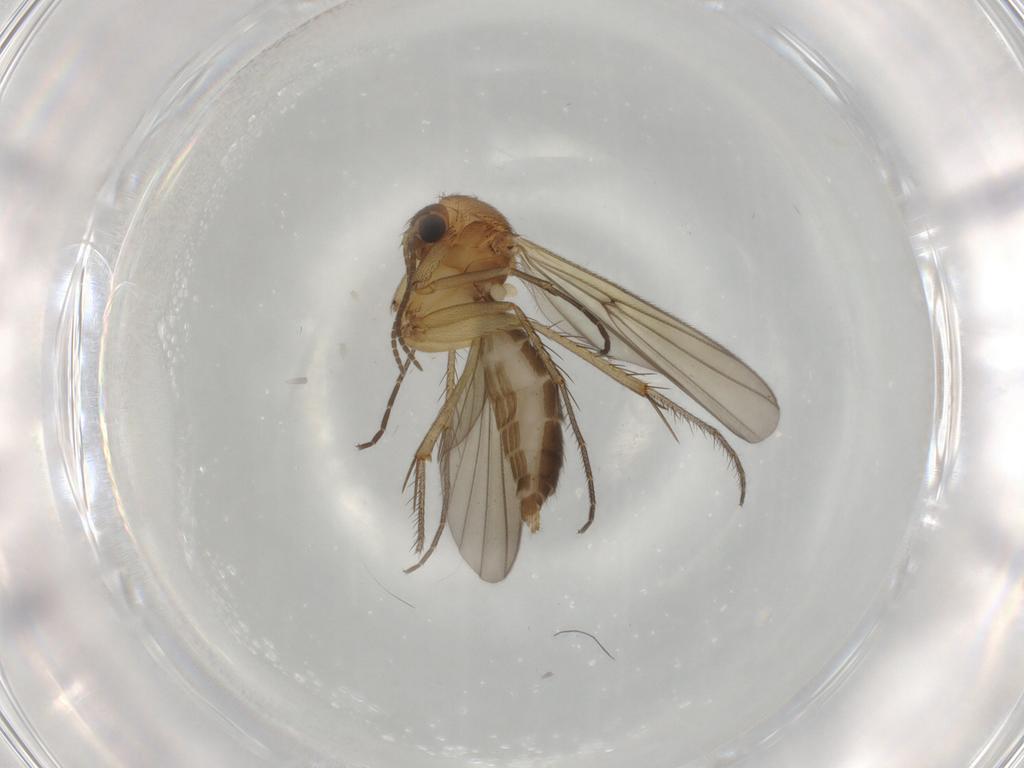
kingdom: Animalia
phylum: Arthropoda
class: Insecta
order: Diptera
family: Mycetophilidae
